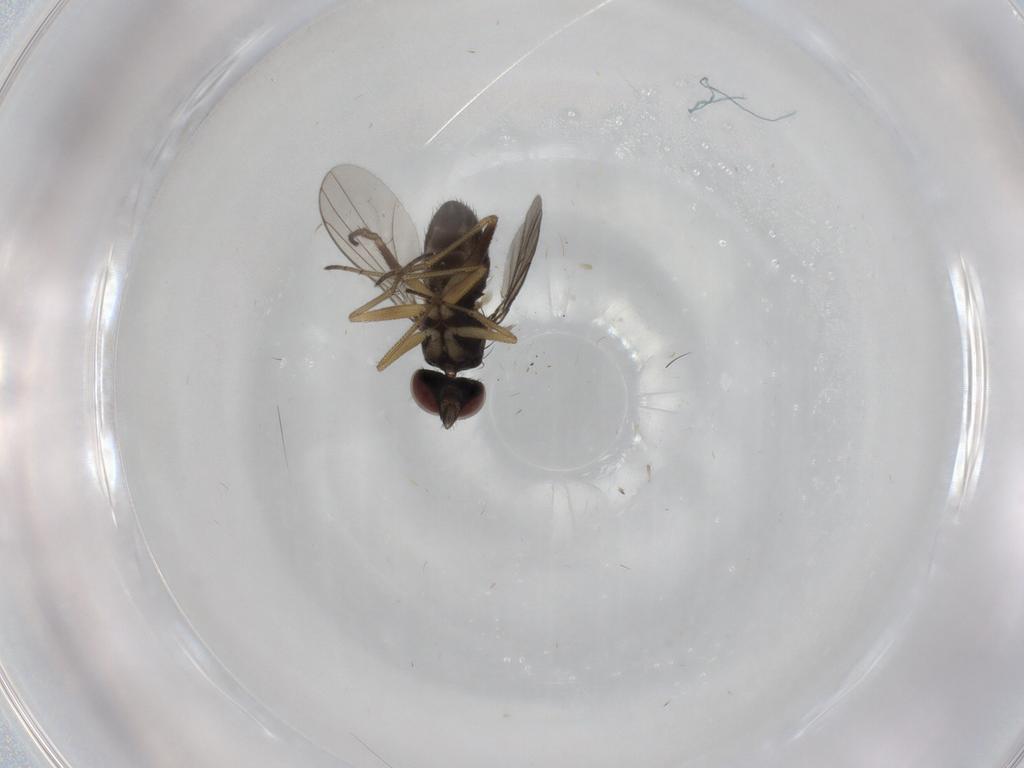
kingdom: Animalia
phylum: Arthropoda
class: Insecta
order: Diptera
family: Dolichopodidae
